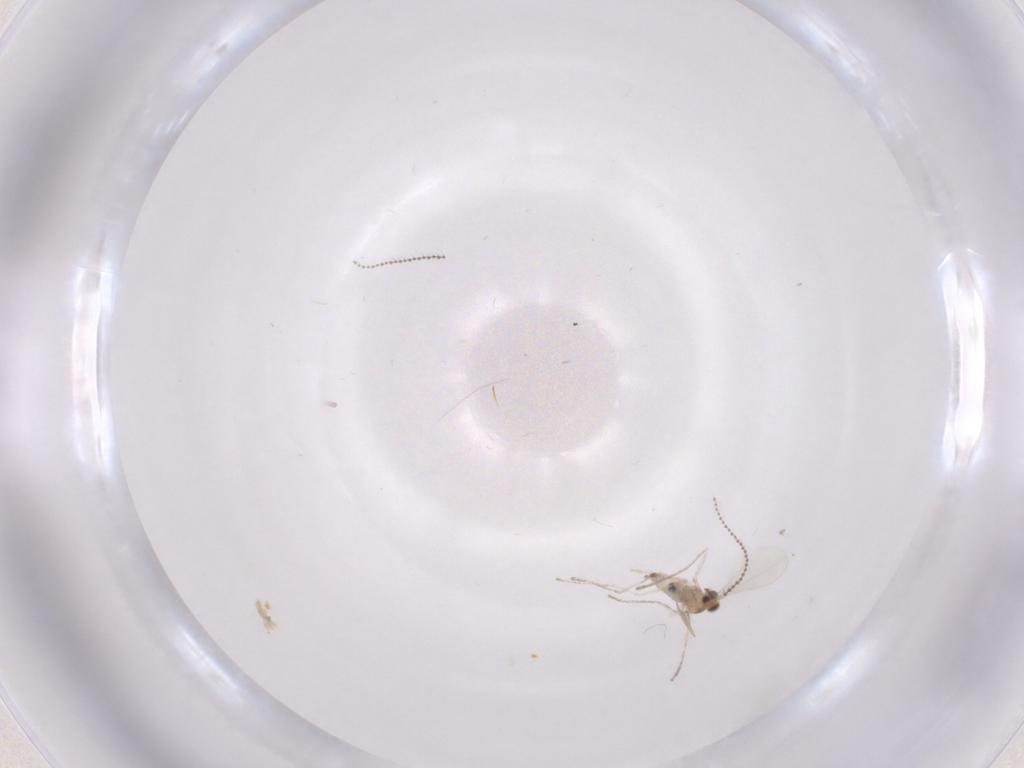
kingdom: Animalia
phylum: Arthropoda
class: Insecta
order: Diptera
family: Cecidomyiidae
